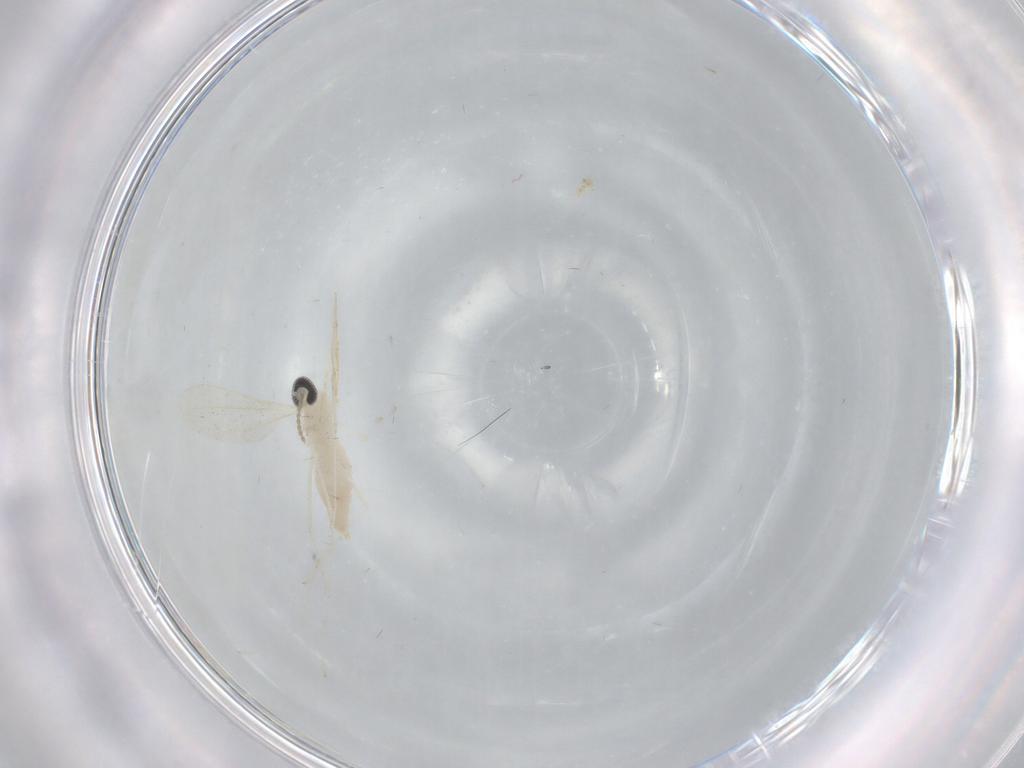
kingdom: Animalia
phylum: Arthropoda
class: Insecta
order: Diptera
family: Cecidomyiidae
